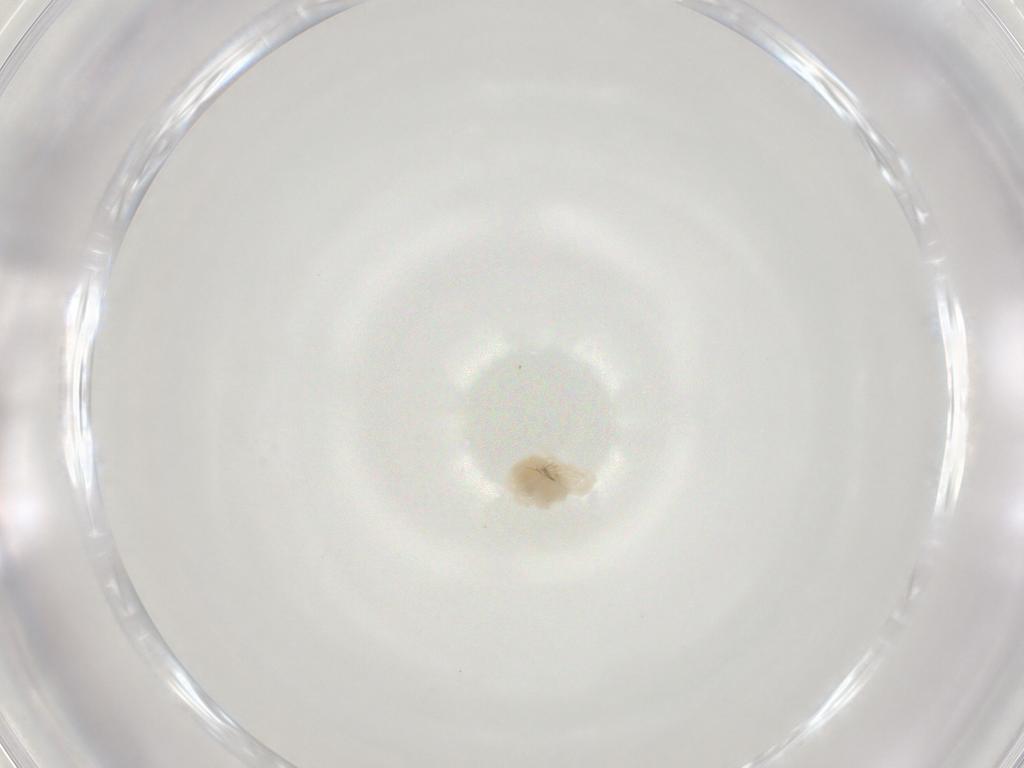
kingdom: Animalia
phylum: Arthropoda
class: Arachnida
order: Trombidiformes
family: Anystidae
